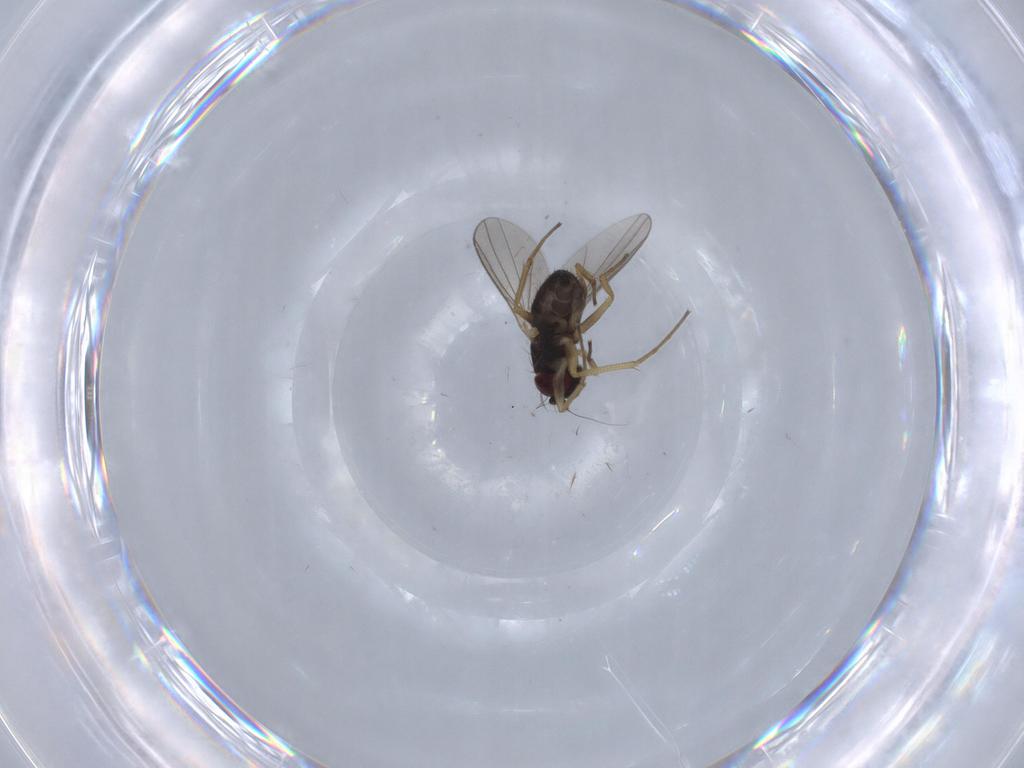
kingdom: Animalia
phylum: Arthropoda
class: Insecta
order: Diptera
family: Dolichopodidae
